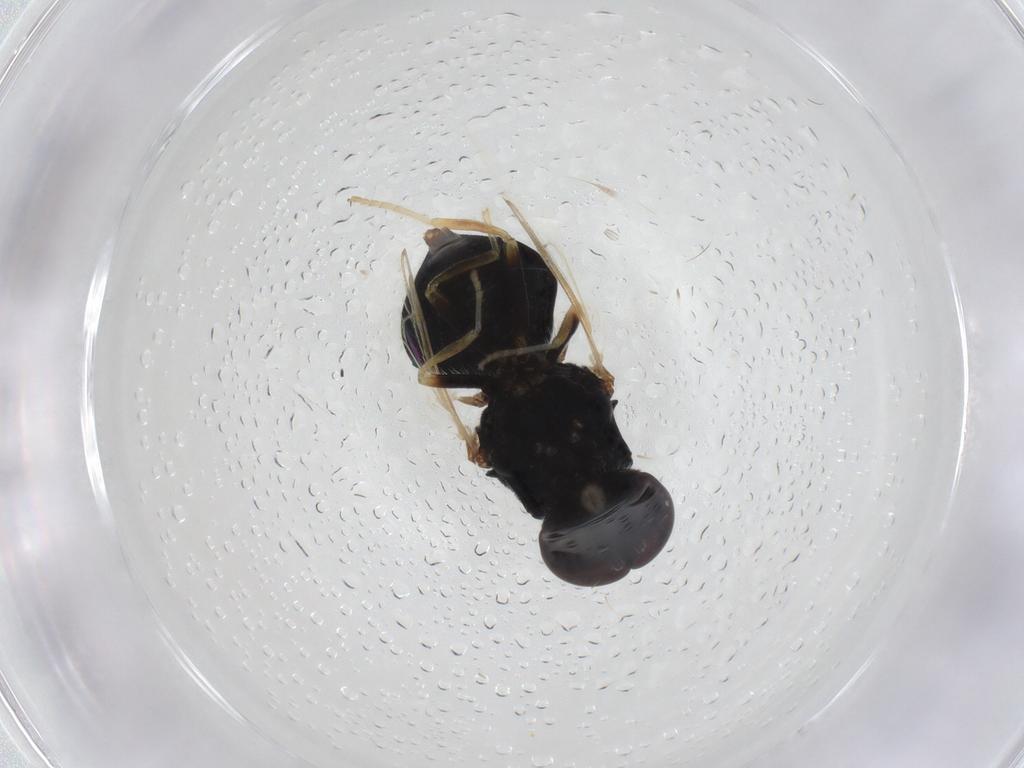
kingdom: Animalia
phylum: Arthropoda
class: Insecta
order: Diptera
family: Stratiomyidae
